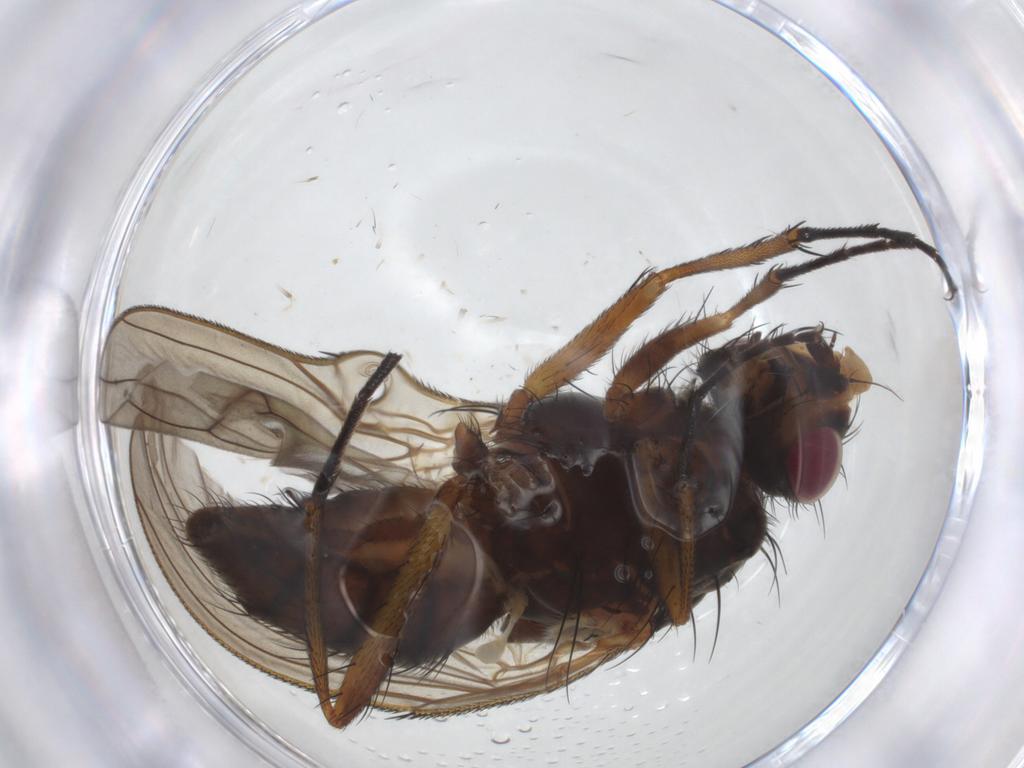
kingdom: Animalia
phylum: Arthropoda
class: Insecta
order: Diptera
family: Anthomyiidae
